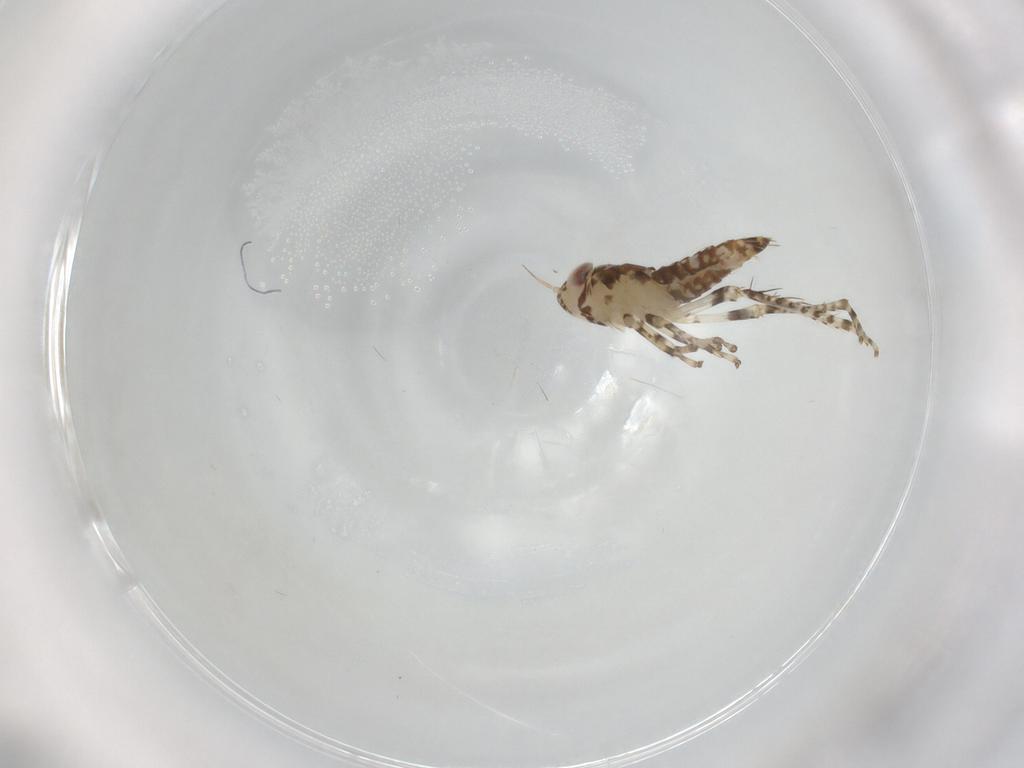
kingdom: Animalia
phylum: Arthropoda
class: Insecta
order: Hemiptera
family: Cicadellidae
